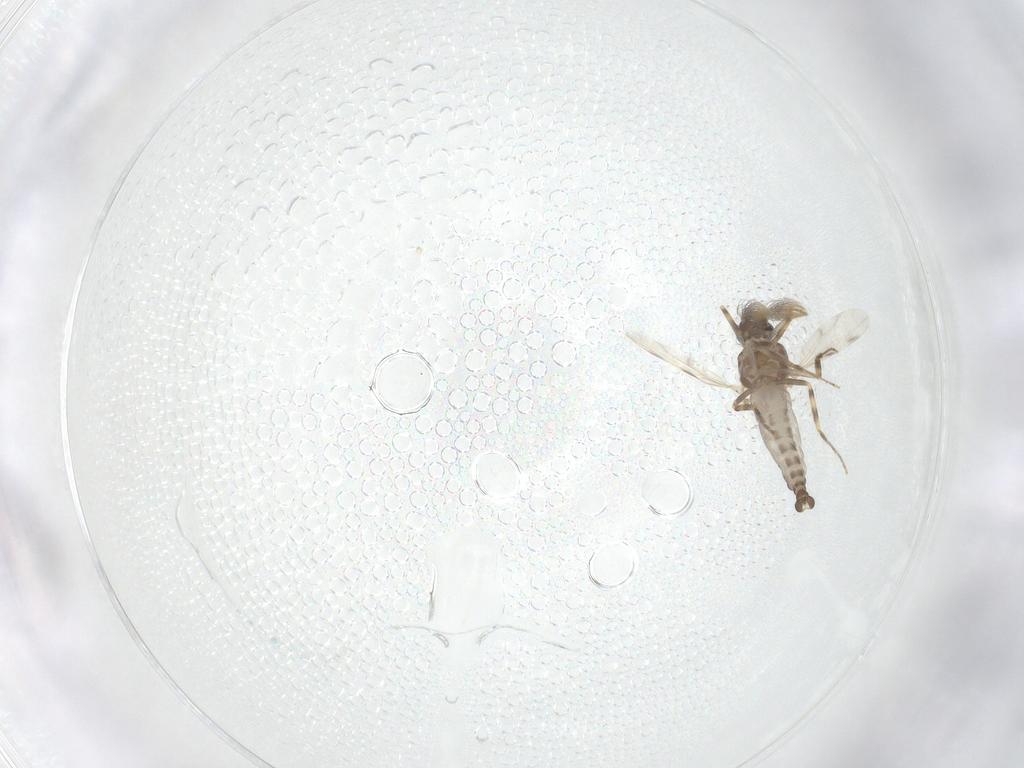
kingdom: Animalia
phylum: Arthropoda
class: Insecta
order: Diptera
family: Ceratopogonidae
